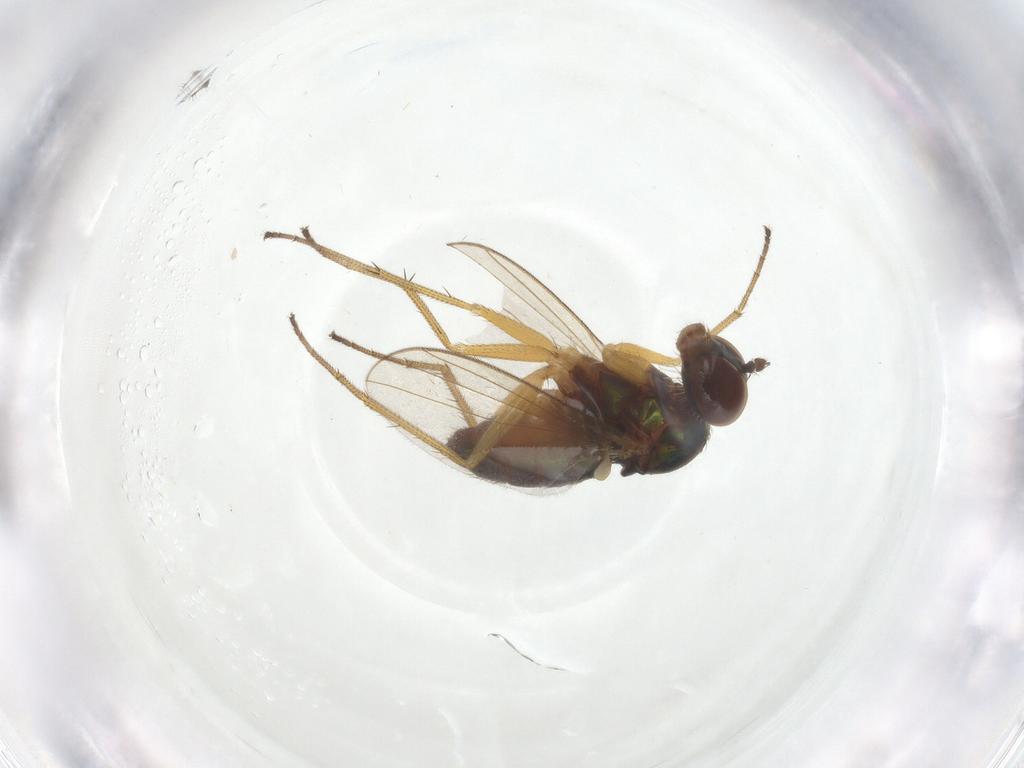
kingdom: Animalia
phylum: Arthropoda
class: Insecta
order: Diptera
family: Dolichopodidae
